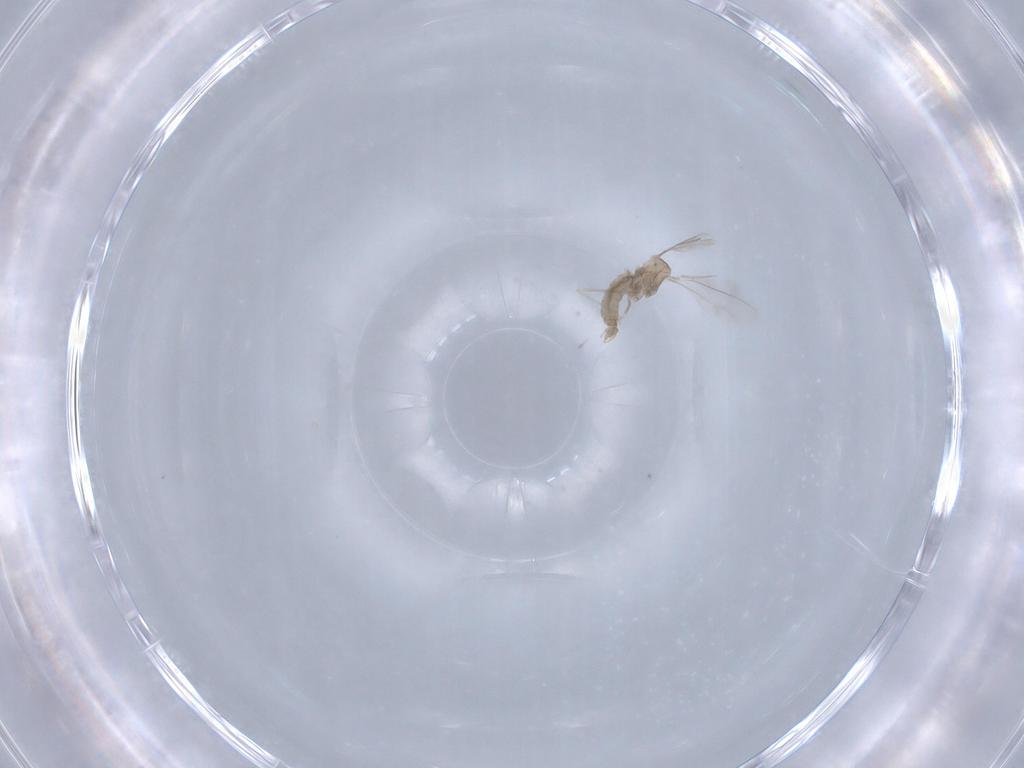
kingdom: Animalia
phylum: Arthropoda
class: Insecta
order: Diptera
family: Cecidomyiidae
